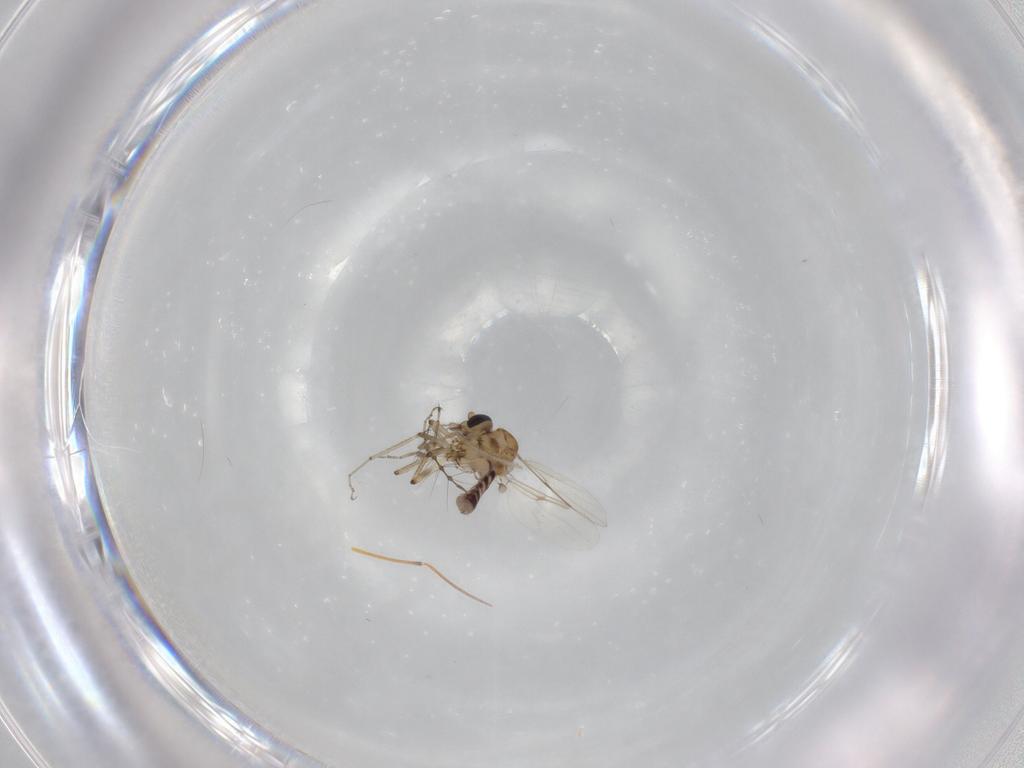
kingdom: Animalia
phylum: Arthropoda
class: Insecta
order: Diptera
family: Ceratopogonidae
